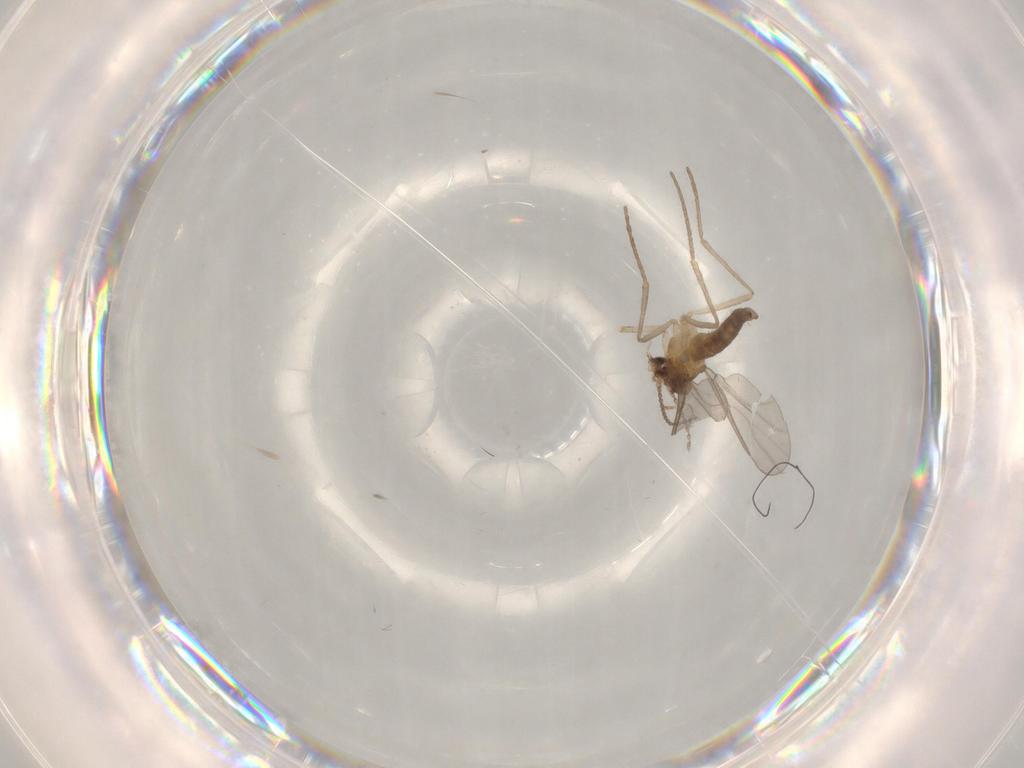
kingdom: Animalia
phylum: Arthropoda
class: Insecta
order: Diptera
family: Cecidomyiidae
